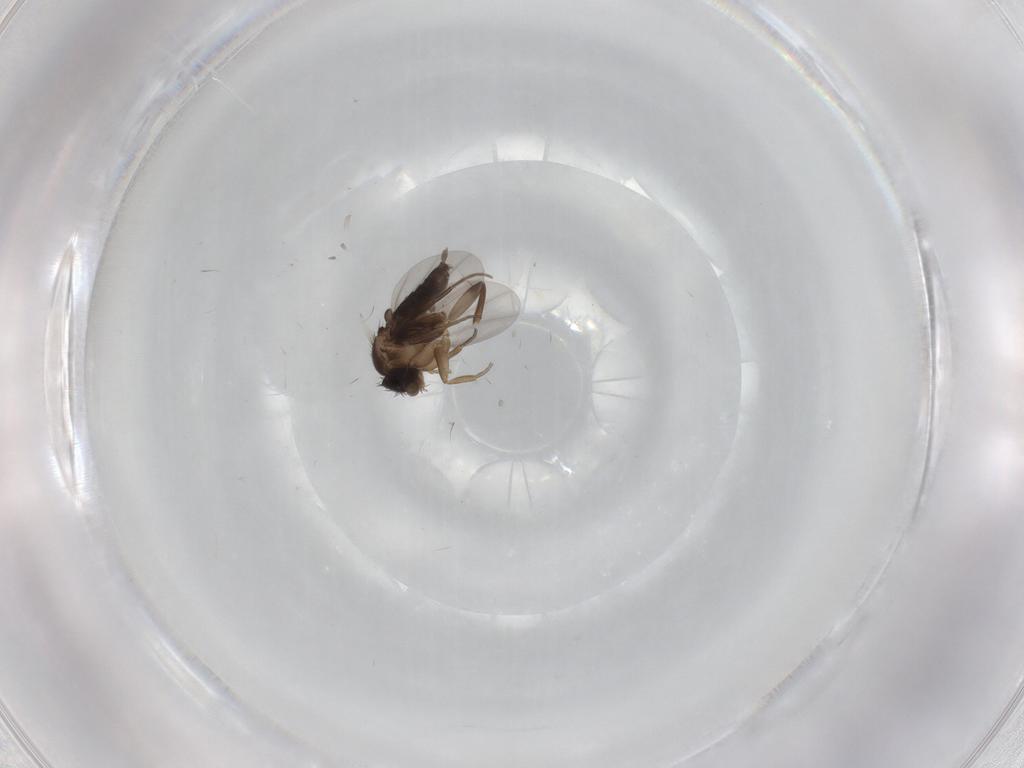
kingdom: Animalia
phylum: Arthropoda
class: Insecta
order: Diptera
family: Phoridae
